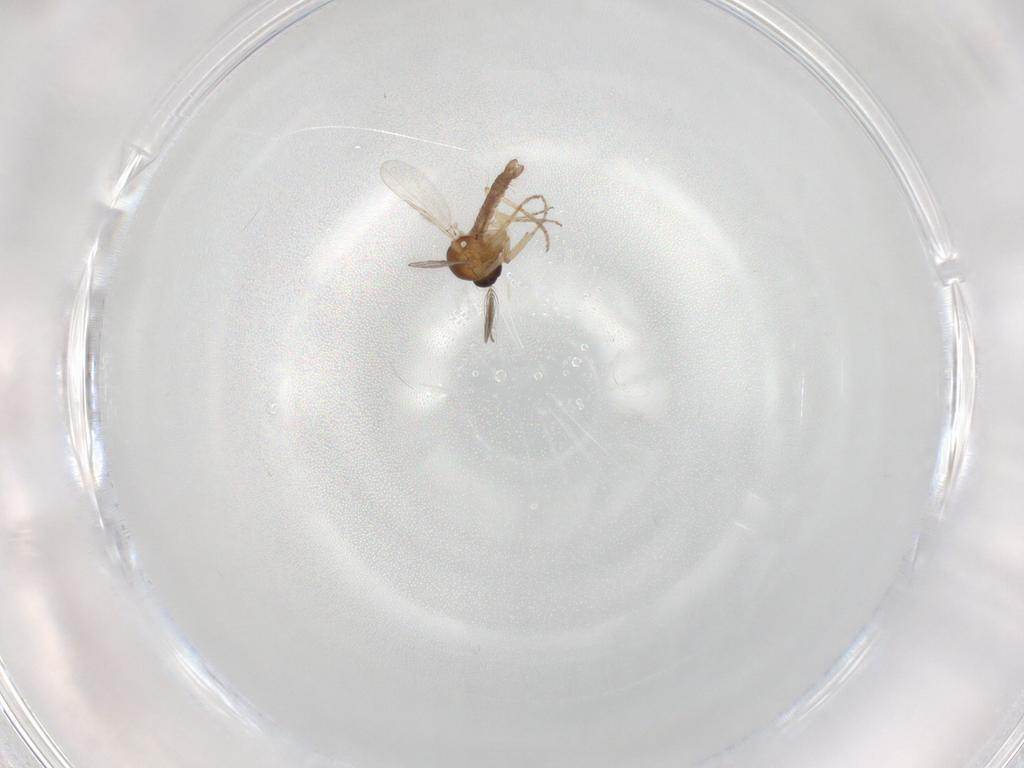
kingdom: Animalia
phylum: Arthropoda
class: Insecta
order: Diptera
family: Ceratopogonidae
